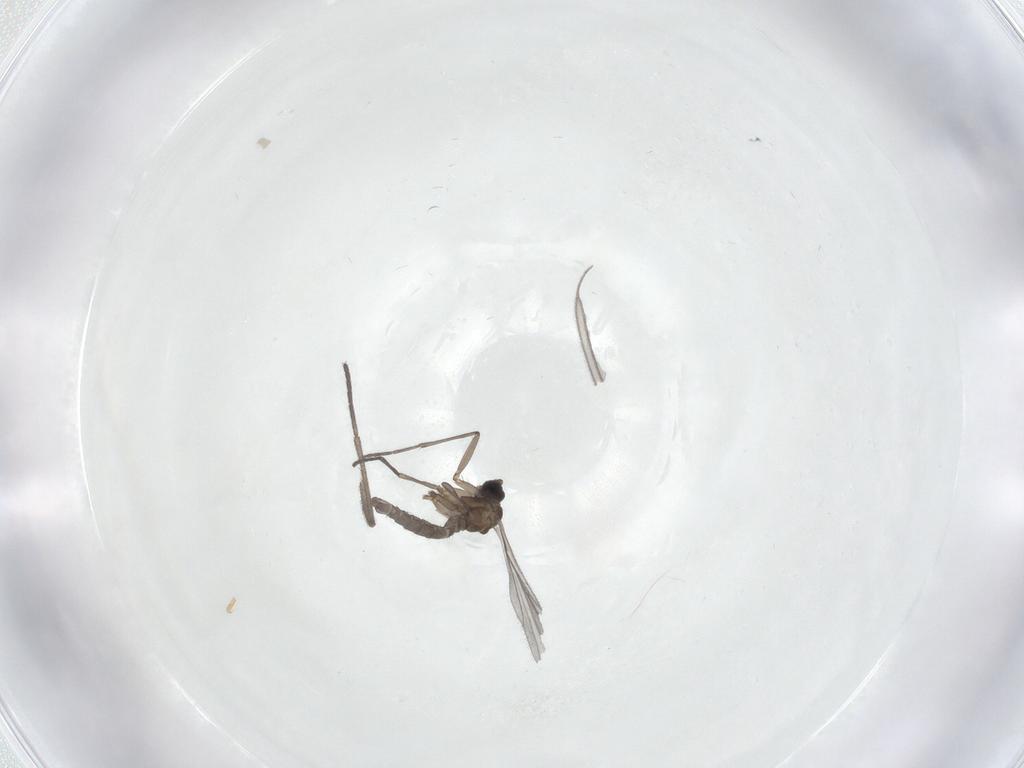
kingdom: Animalia
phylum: Arthropoda
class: Insecta
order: Diptera
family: Sciaridae
